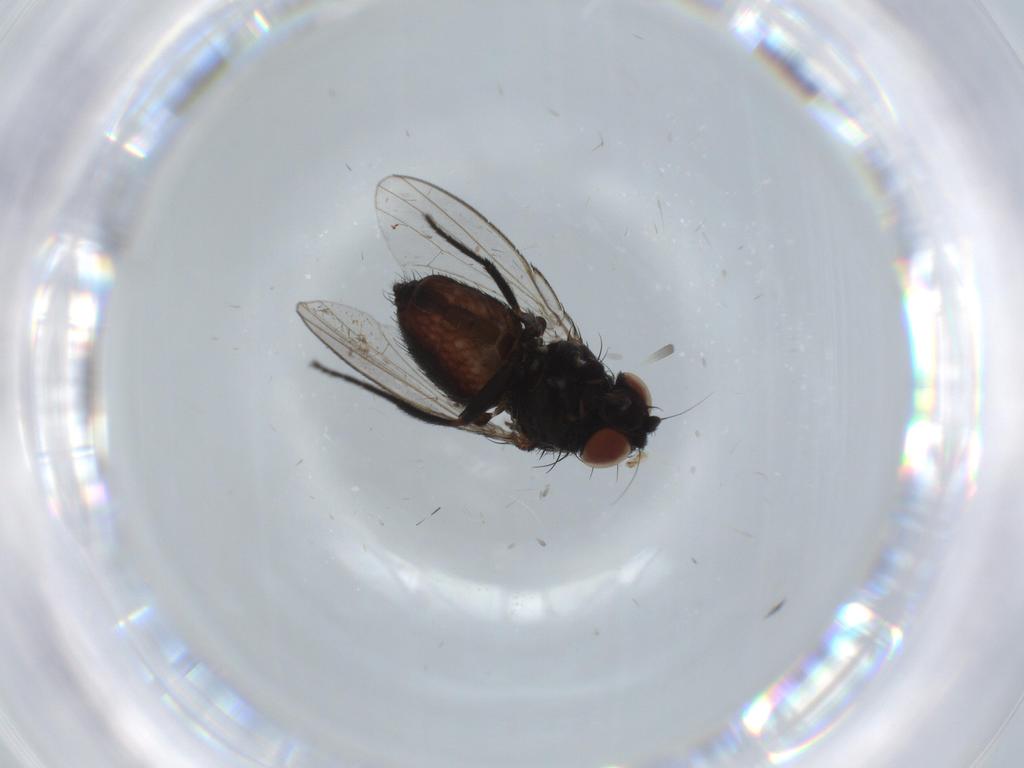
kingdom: Animalia
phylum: Arthropoda
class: Insecta
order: Diptera
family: Milichiidae
